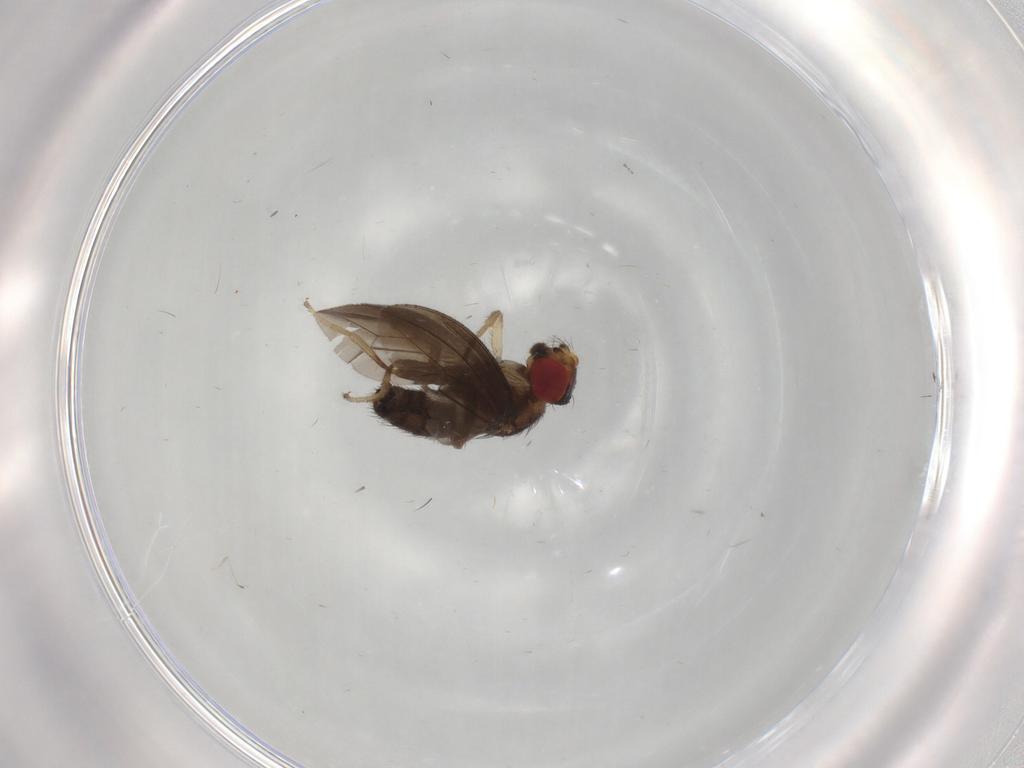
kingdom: Animalia
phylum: Arthropoda
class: Insecta
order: Diptera
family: Drosophilidae
